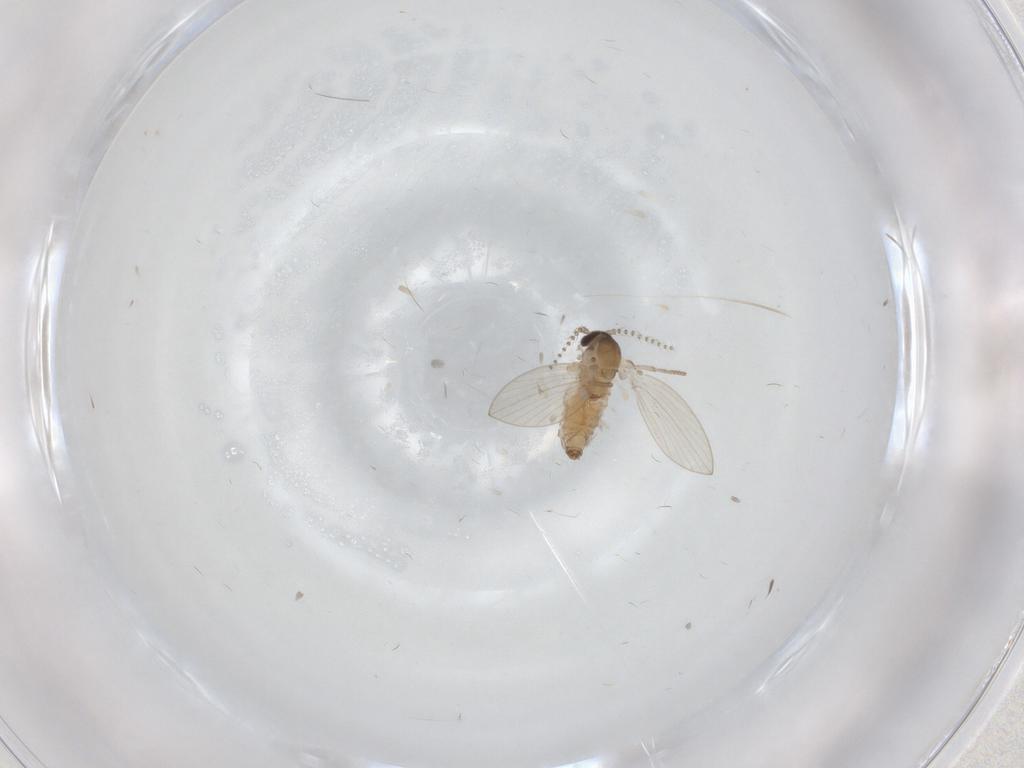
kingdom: Animalia
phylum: Arthropoda
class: Insecta
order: Diptera
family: Psychodidae
